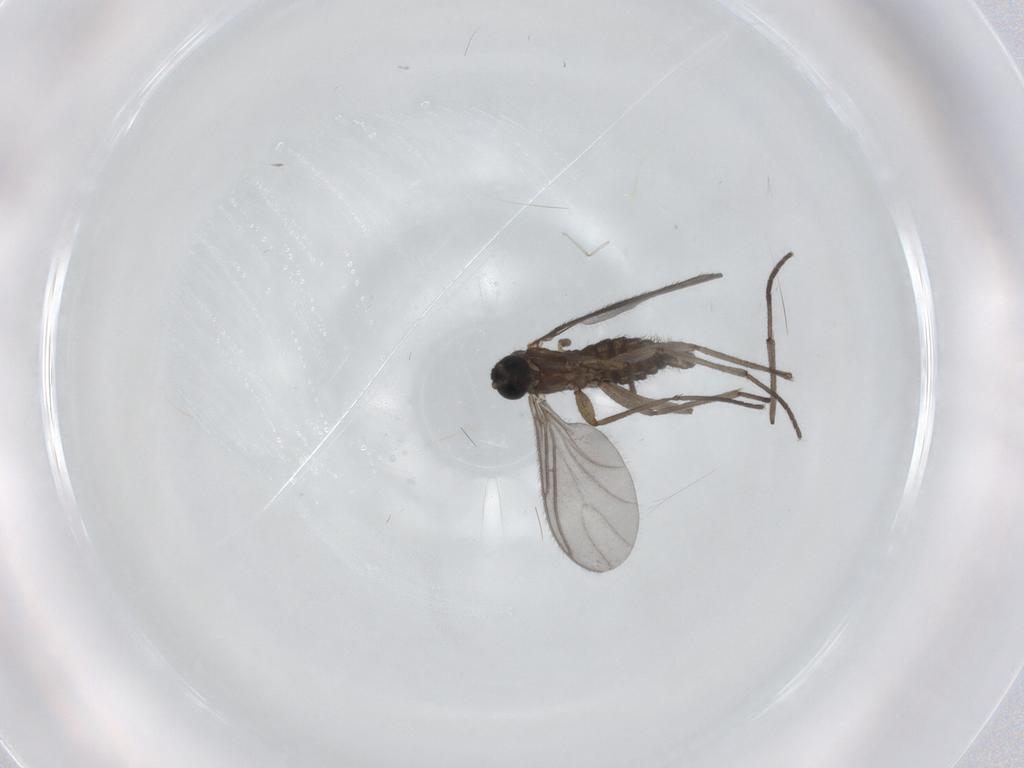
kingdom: Animalia
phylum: Arthropoda
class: Insecta
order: Diptera
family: Limoniidae
